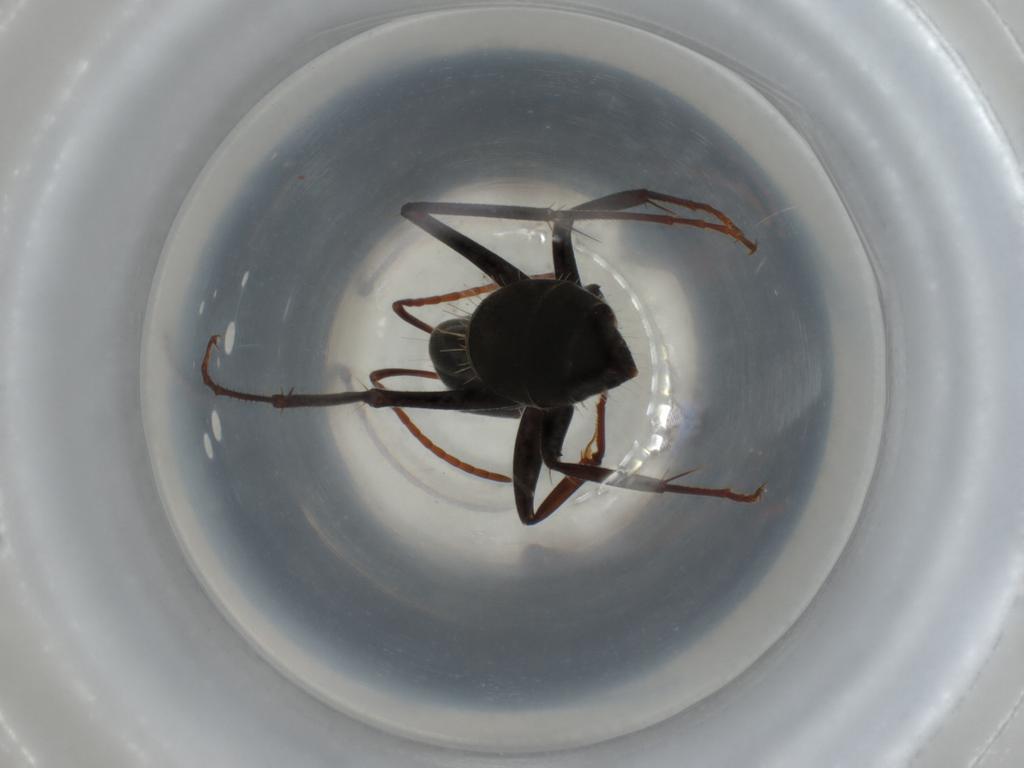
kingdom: Animalia
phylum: Arthropoda
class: Insecta
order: Hymenoptera
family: Formicidae
